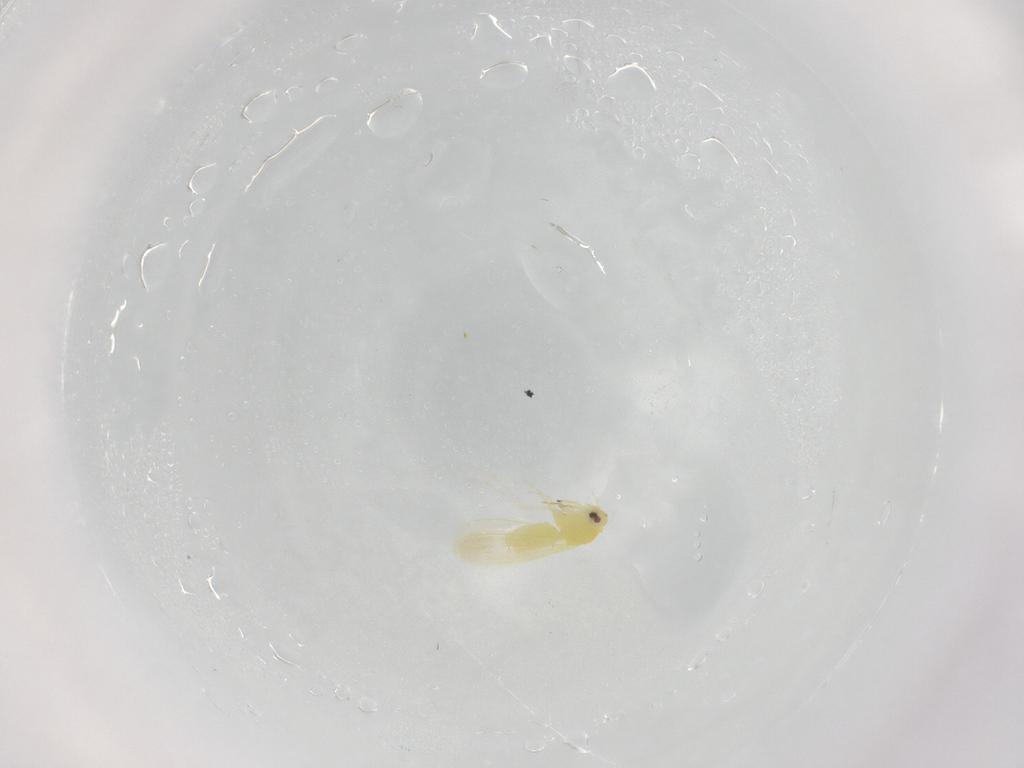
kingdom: Animalia
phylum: Arthropoda
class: Insecta
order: Hemiptera
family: Aleyrodidae
